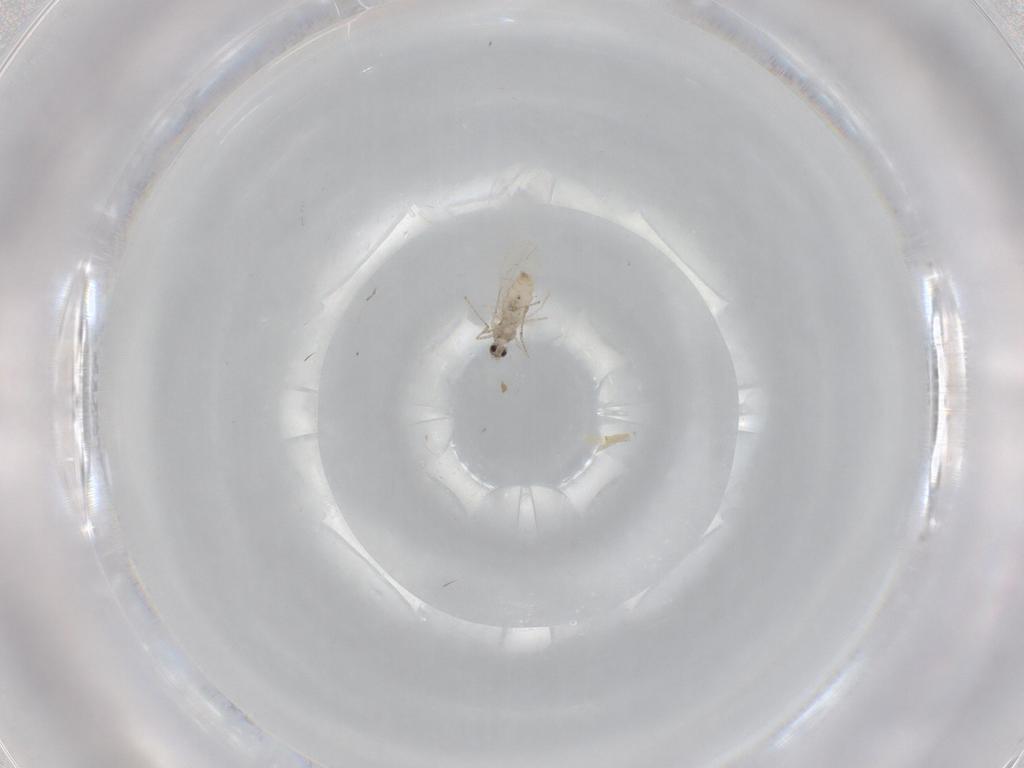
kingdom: Animalia
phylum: Arthropoda
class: Insecta
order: Diptera
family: Cecidomyiidae
